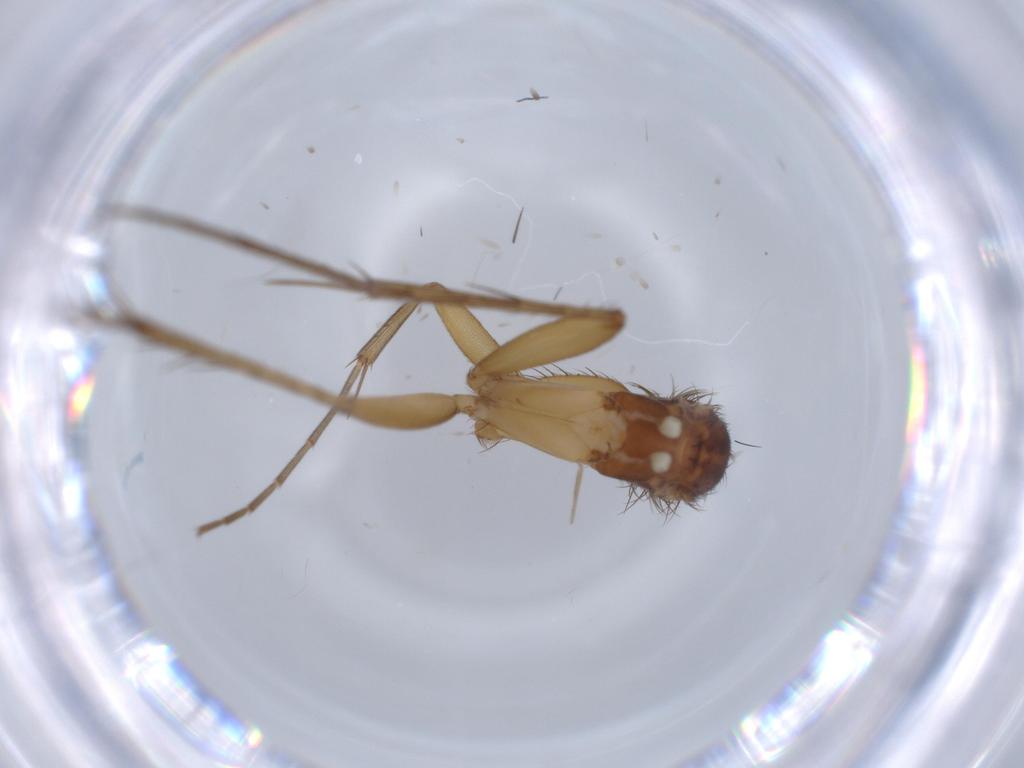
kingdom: Animalia
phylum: Arthropoda
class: Insecta
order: Diptera
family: Mycetophilidae
